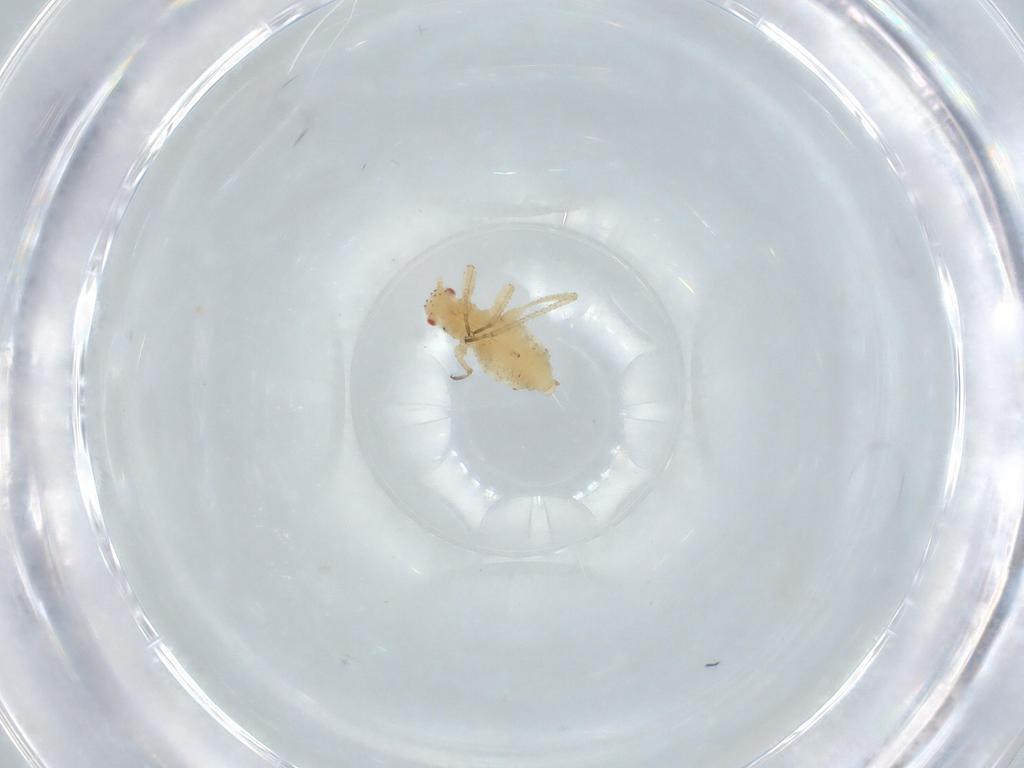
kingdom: Animalia
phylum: Arthropoda
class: Insecta
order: Hemiptera
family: Aphididae
